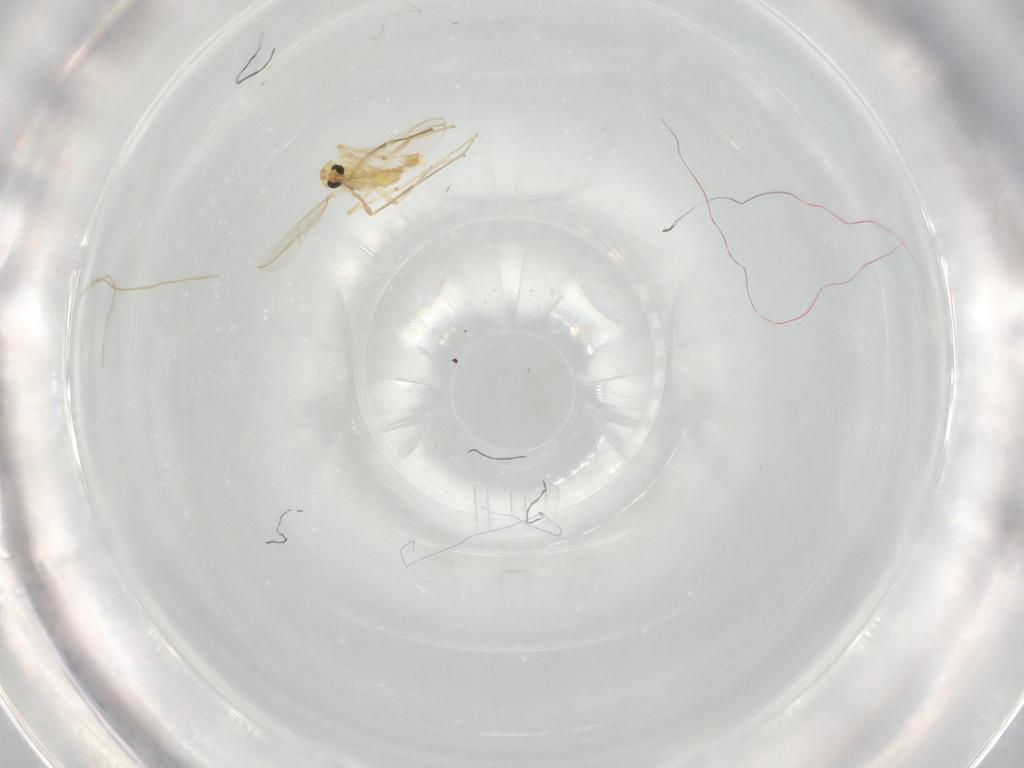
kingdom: Animalia
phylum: Arthropoda
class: Insecta
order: Diptera
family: Chironomidae
